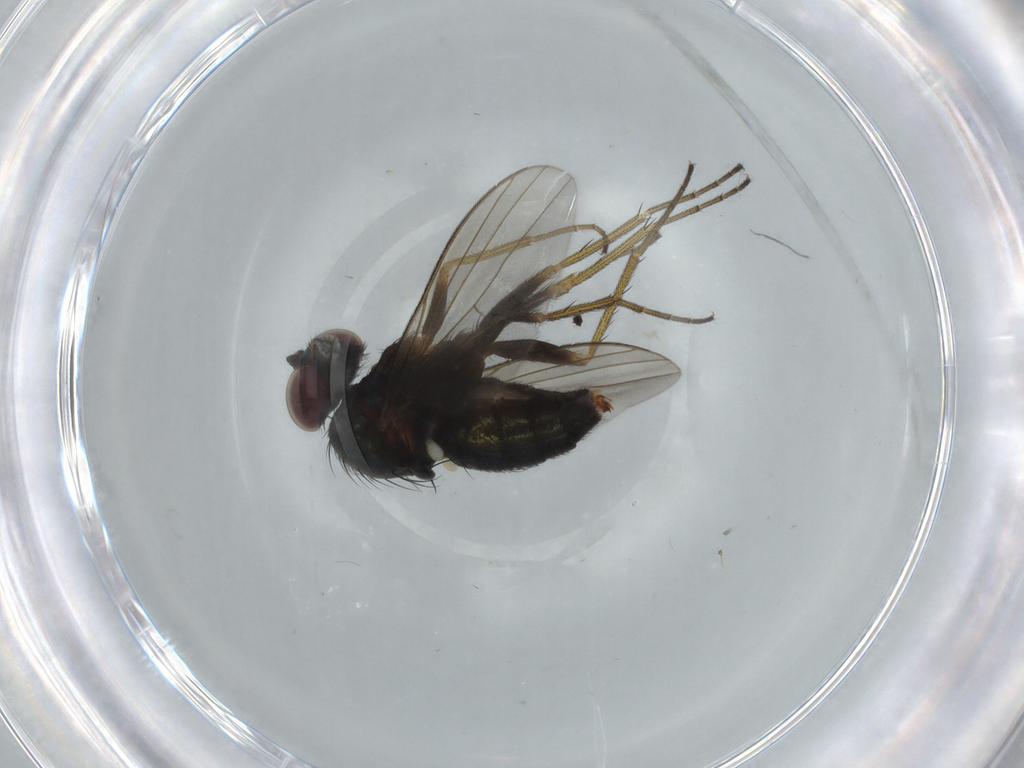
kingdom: Animalia
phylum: Arthropoda
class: Insecta
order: Diptera
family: Dolichopodidae
